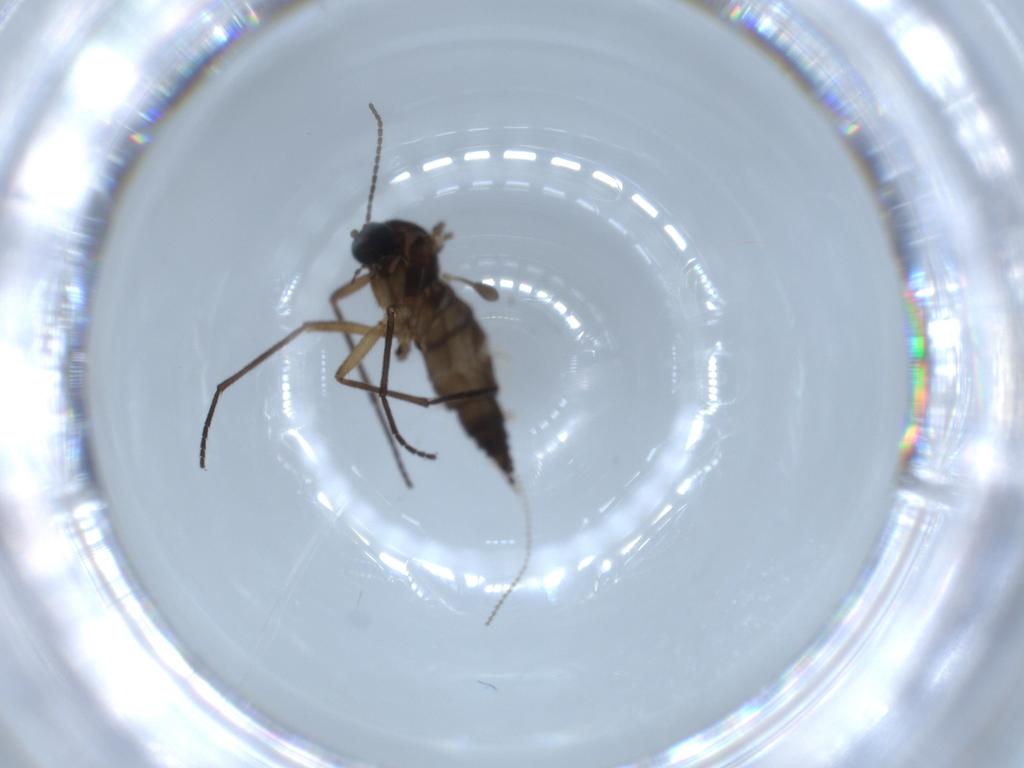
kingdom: Animalia
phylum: Arthropoda
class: Insecta
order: Diptera
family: Sciaridae
